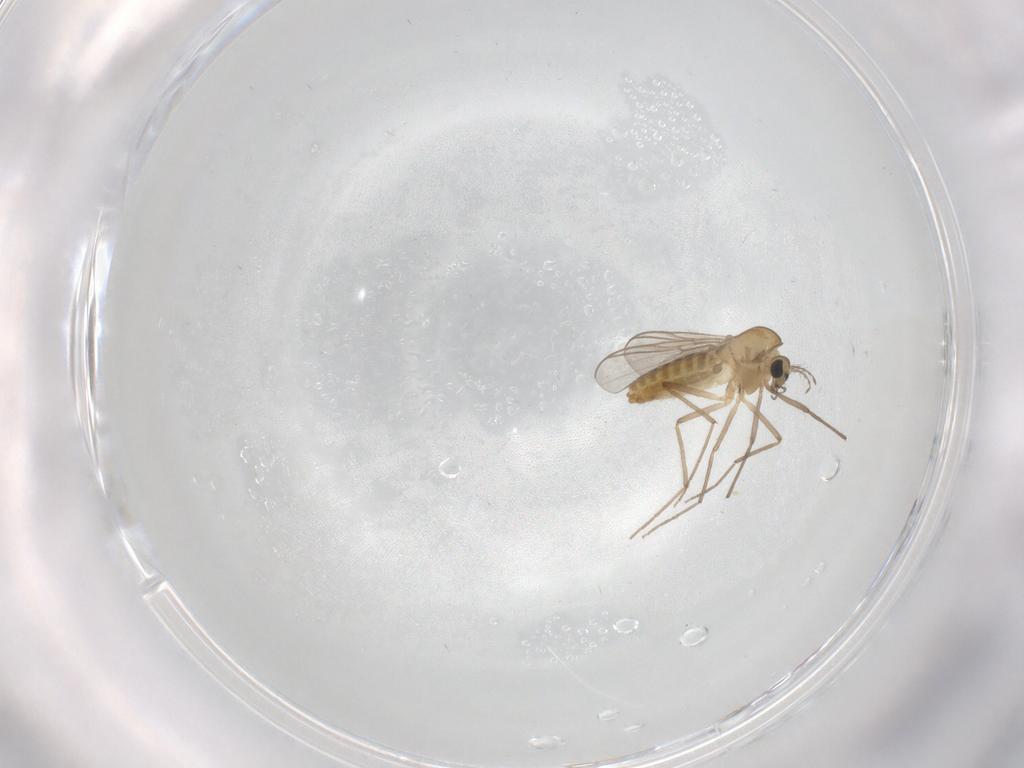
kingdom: Animalia
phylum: Arthropoda
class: Insecta
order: Diptera
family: Chironomidae
